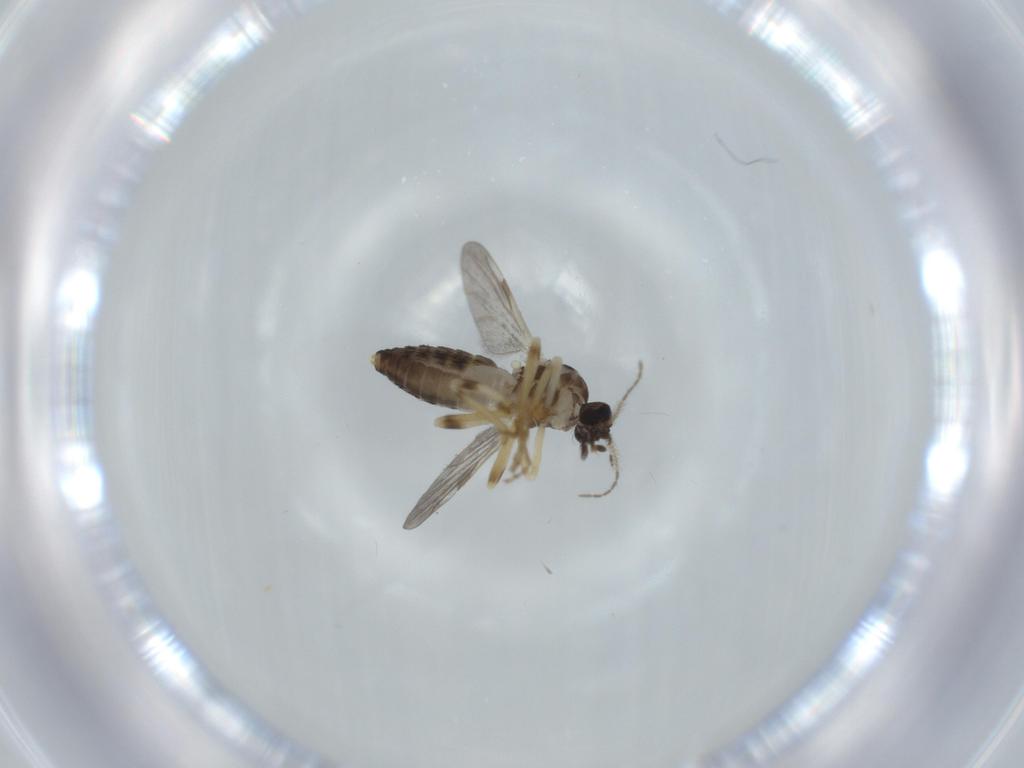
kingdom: Animalia
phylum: Arthropoda
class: Insecta
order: Diptera
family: Ceratopogonidae
